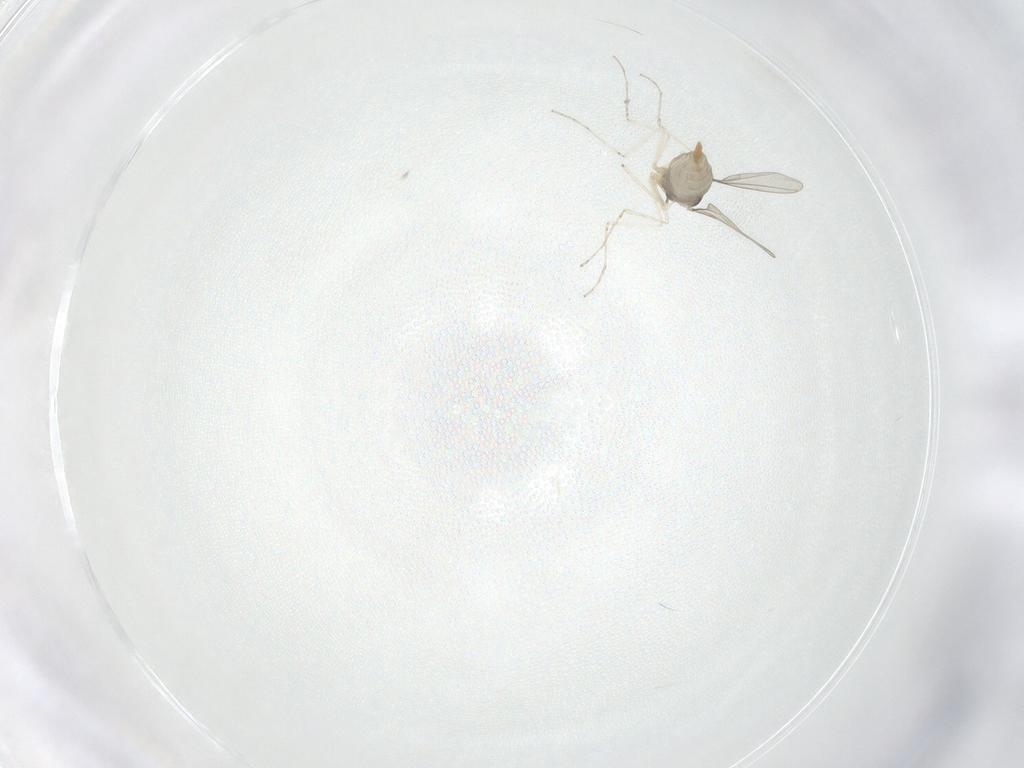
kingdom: Animalia
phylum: Arthropoda
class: Insecta
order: Diptera
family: Cecidomyiidae
